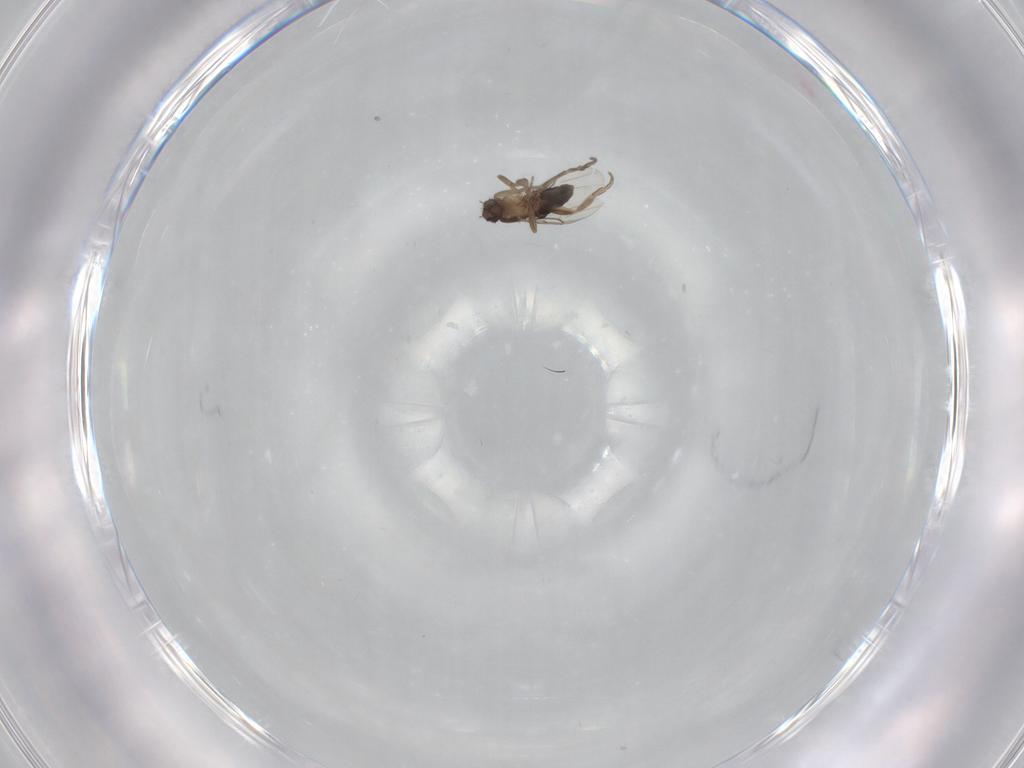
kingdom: Animalia
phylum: Arthropoda
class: Insecta
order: Diptera
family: Phoridae
